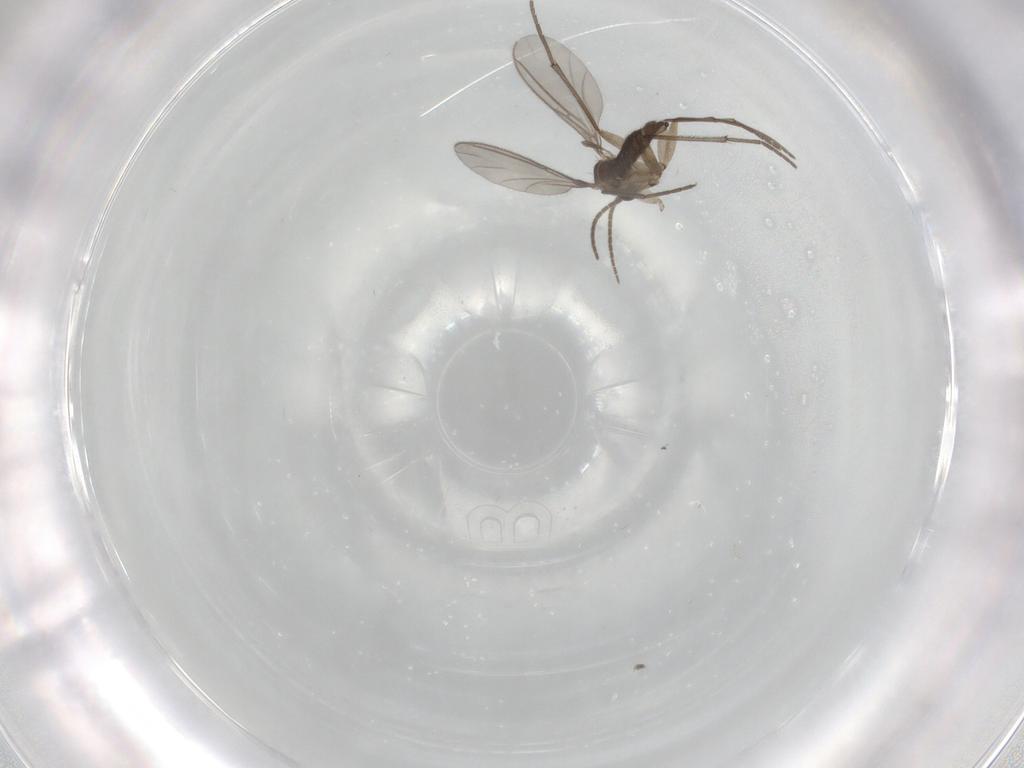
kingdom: Animalia
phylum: Arthropoda
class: Insecta
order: Diptera
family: Sciaridae
